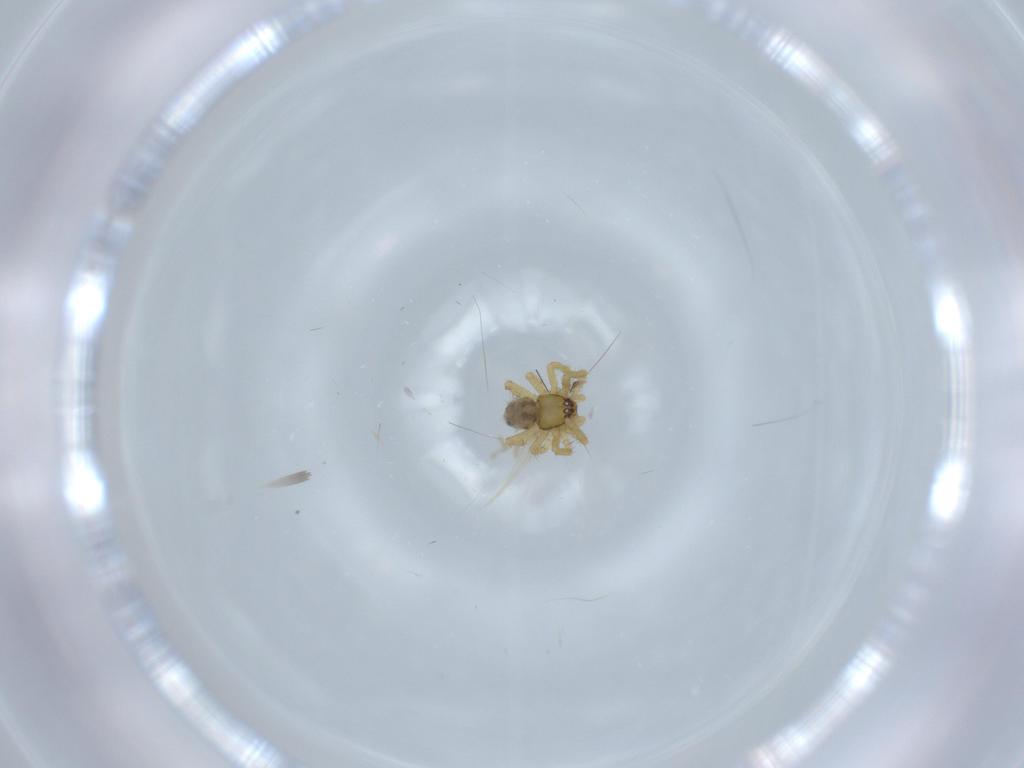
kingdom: Animalia
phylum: Arthropoda
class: Arachnida
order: Araneae
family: Theridiidae
